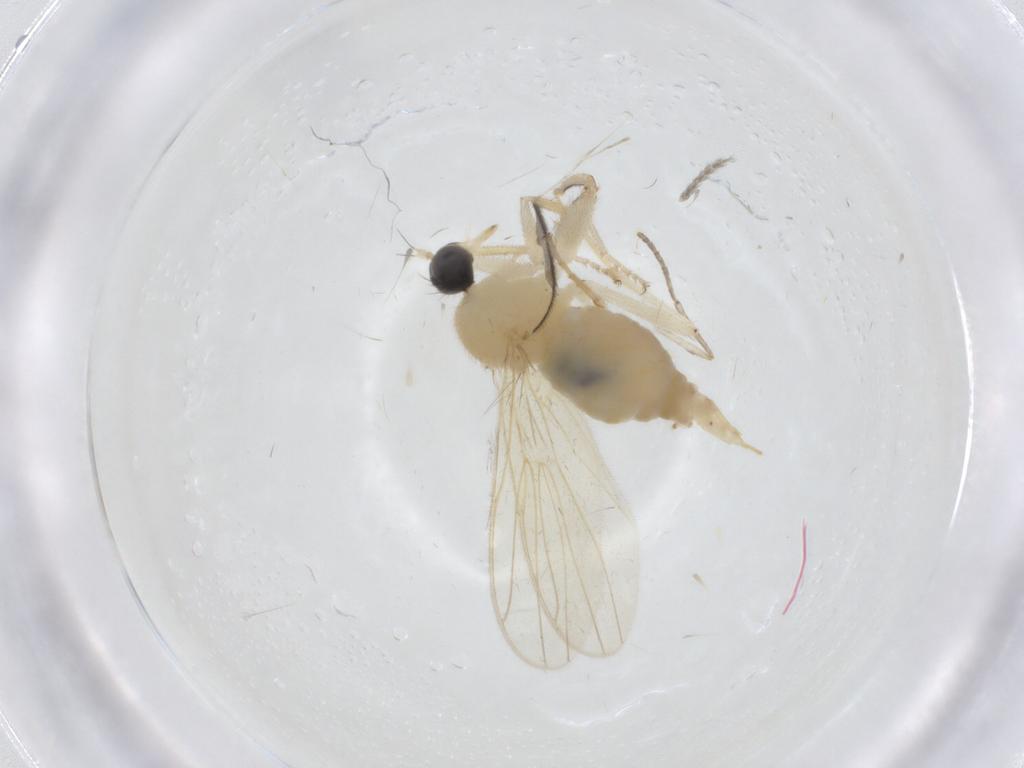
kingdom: Animalia
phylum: Arthropoda
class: Insecta
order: Diptera
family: Hybotidae
